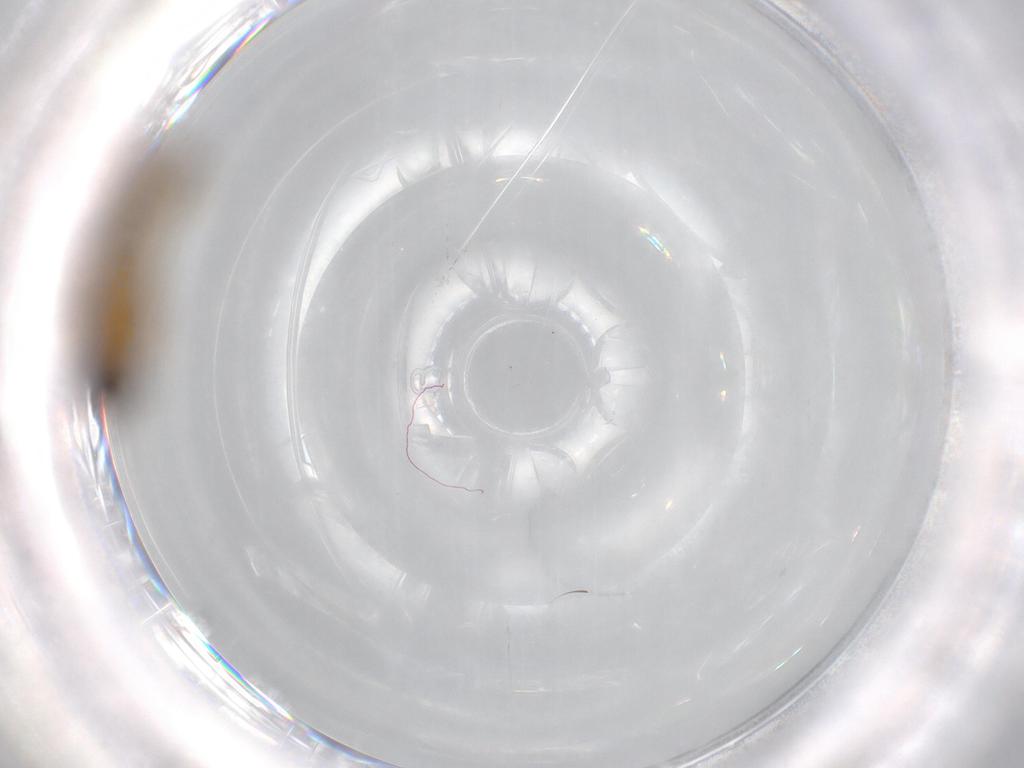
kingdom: Animalia
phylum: Arthropoda
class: Insecta
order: Diptera
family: Empididae
